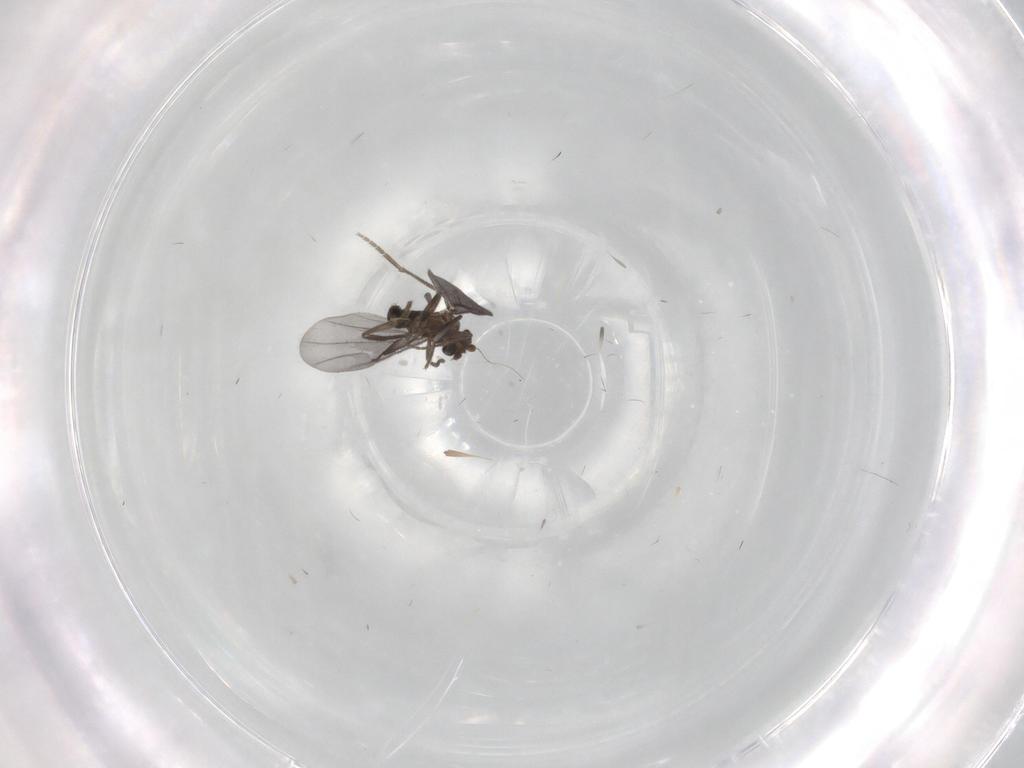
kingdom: Animalia
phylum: Arthropoda
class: Insecta
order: Diptera
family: Phoridae
